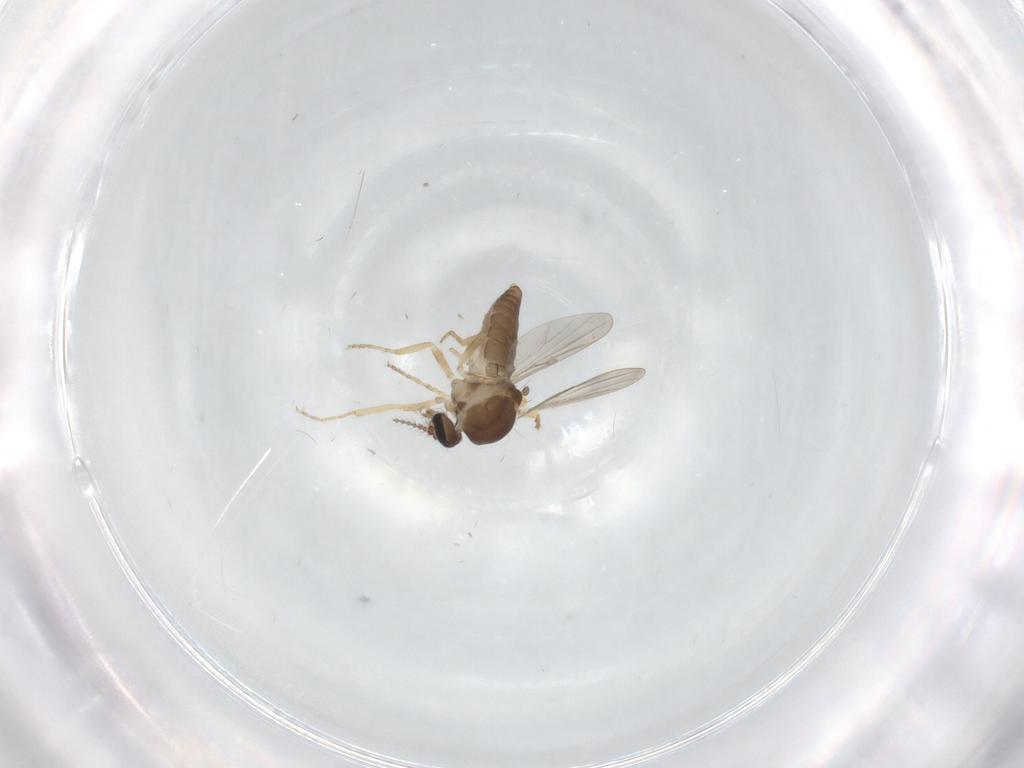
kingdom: Animalia
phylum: Arthropoda
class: Insecta
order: Diptera
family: Ceratopogonidae
